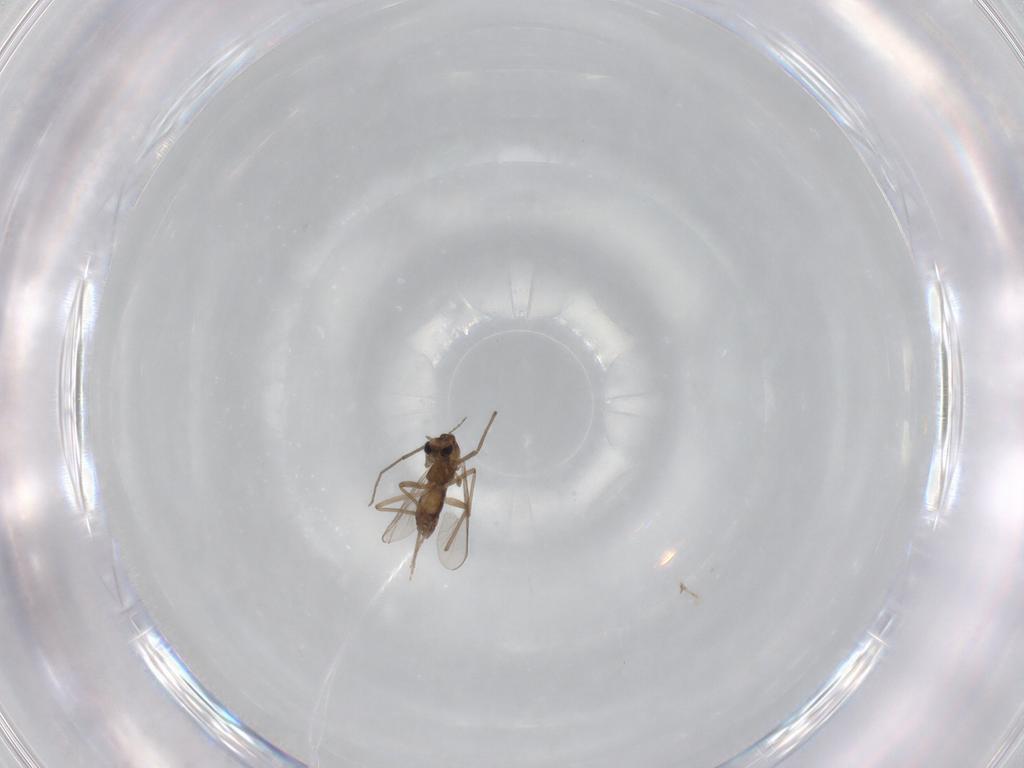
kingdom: Animalia
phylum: Arthropoda
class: Insecta
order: Diptera
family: Chironomidae
